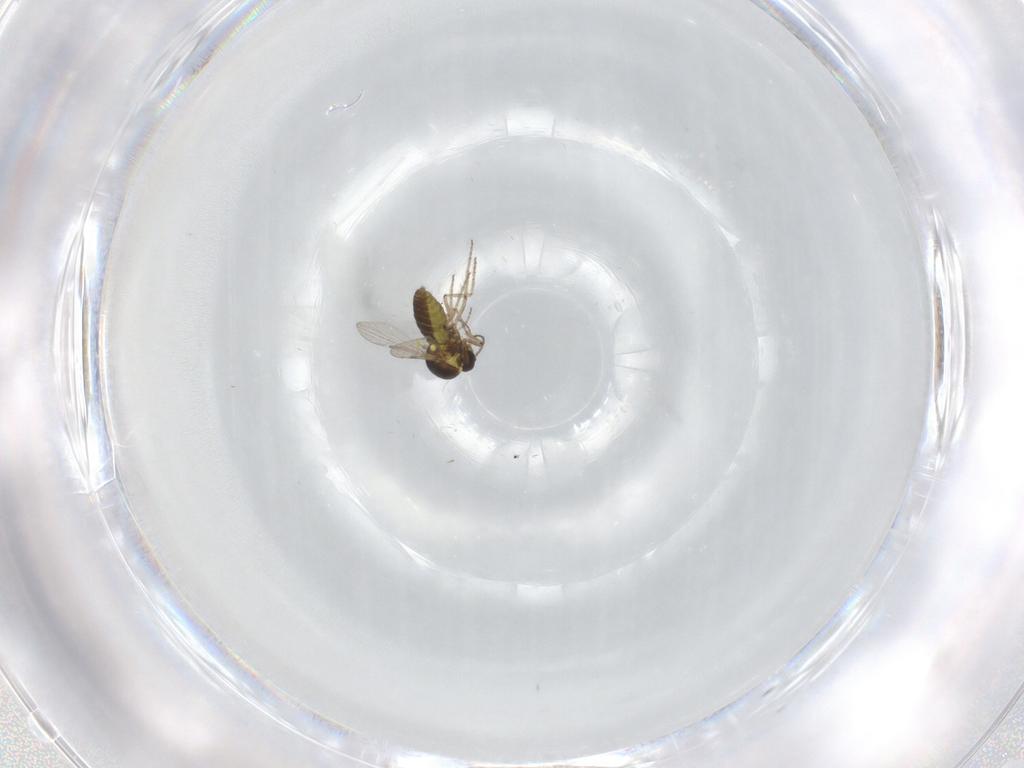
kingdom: Animalia
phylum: Arthropoda
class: Insecta
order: Diptera
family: Ceratopogonidae
